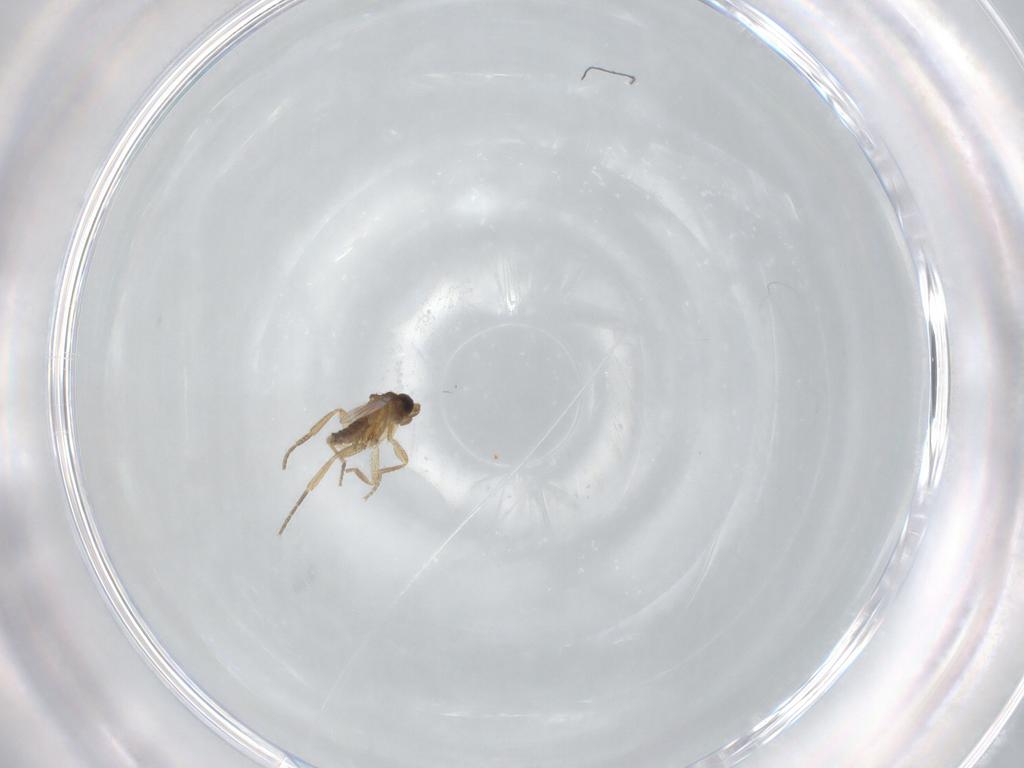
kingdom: Animalia
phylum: Arthropoda
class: Insecta
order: Diptera
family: Phoridae
